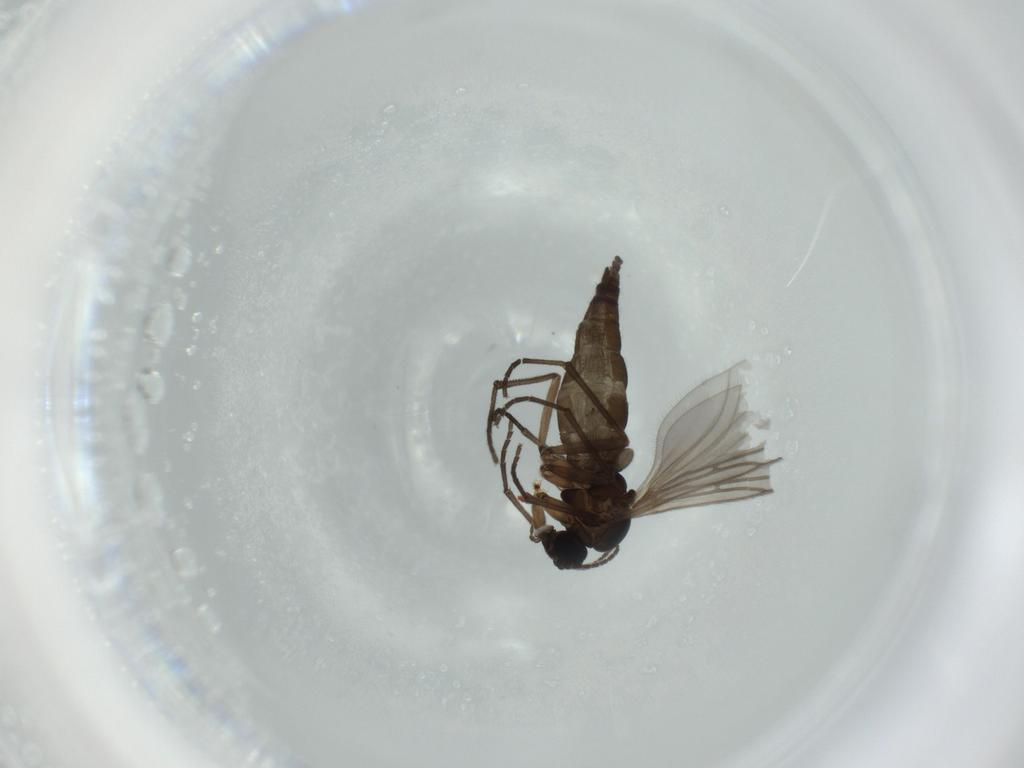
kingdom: Animalia
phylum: Arthropoda
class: Insecta
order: Diptera
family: Sciaridae
